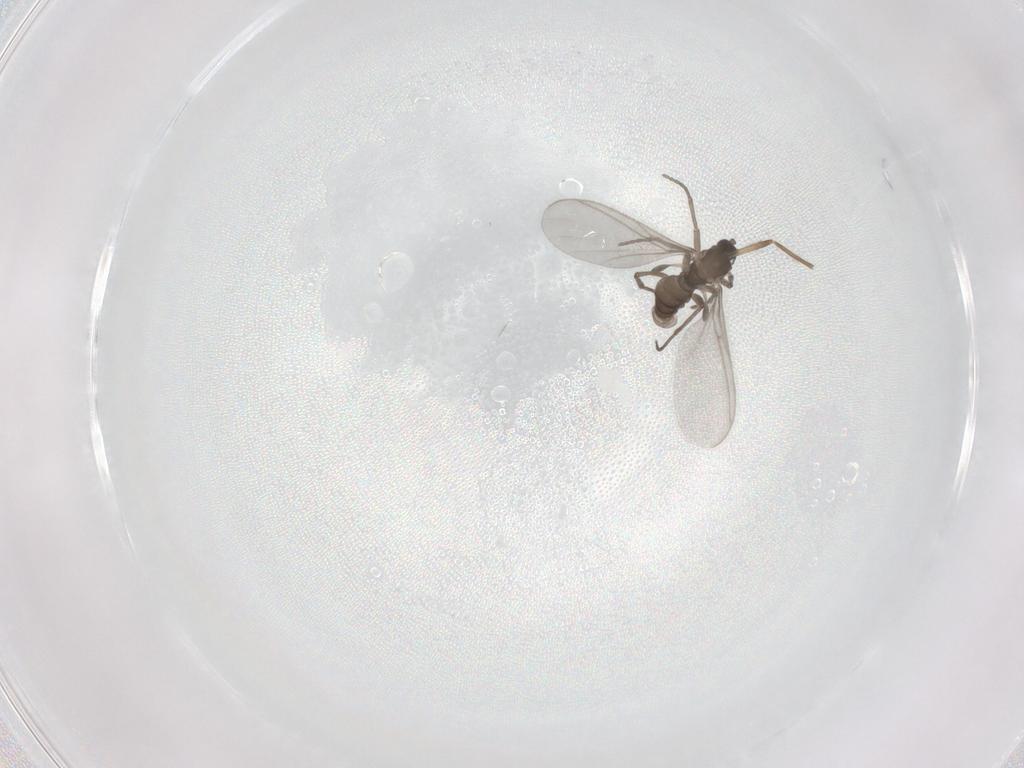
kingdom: Animalia
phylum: Arthropoda
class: Insecta
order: Diptera
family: Sciaridae
